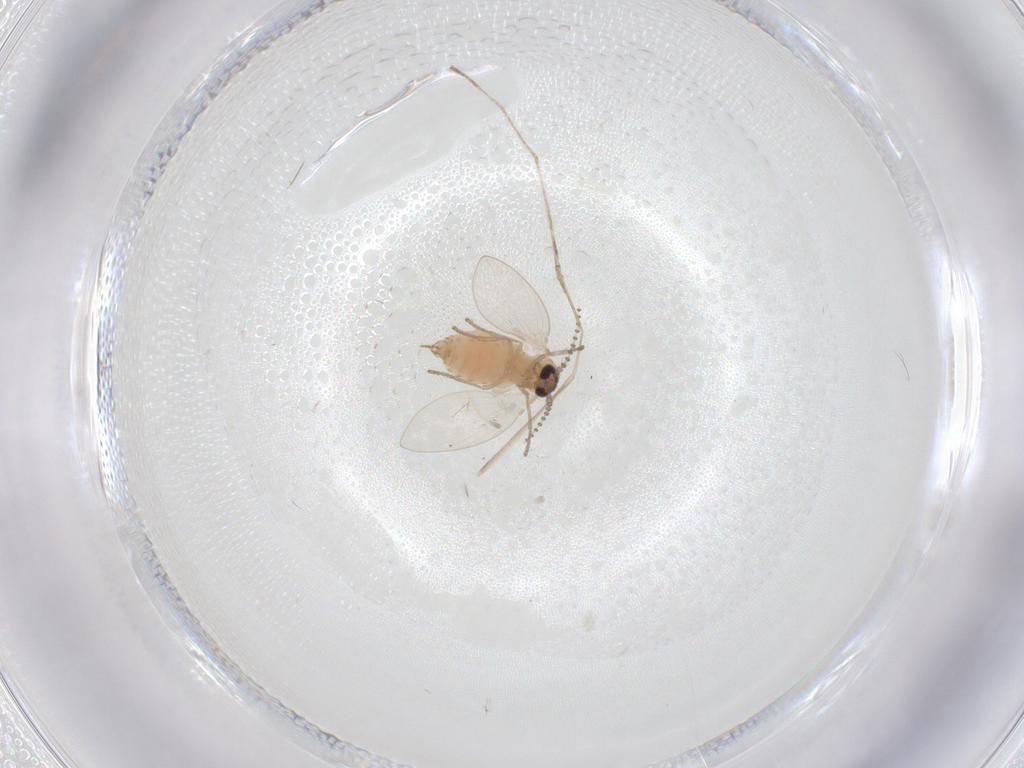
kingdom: Animalia
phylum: Arthropoda
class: Insecta
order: Diptera
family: Cecidomyiidae
